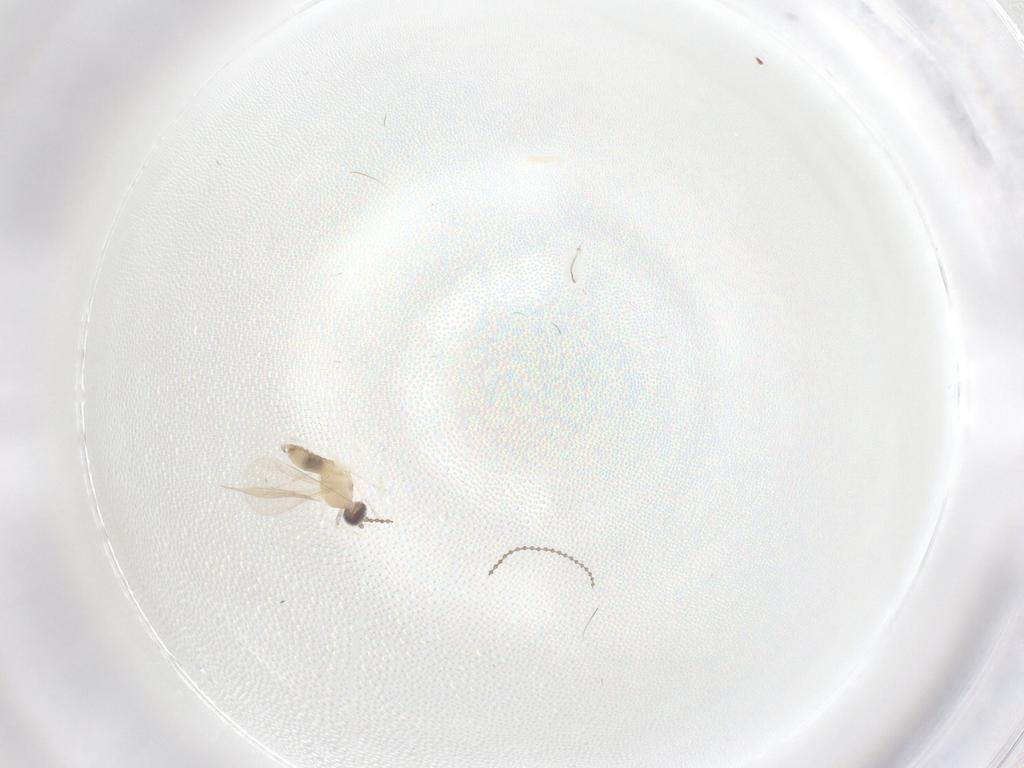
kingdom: Animalia
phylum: Arthropoda
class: Insecta
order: Diptera
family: Cecidomyiidae
